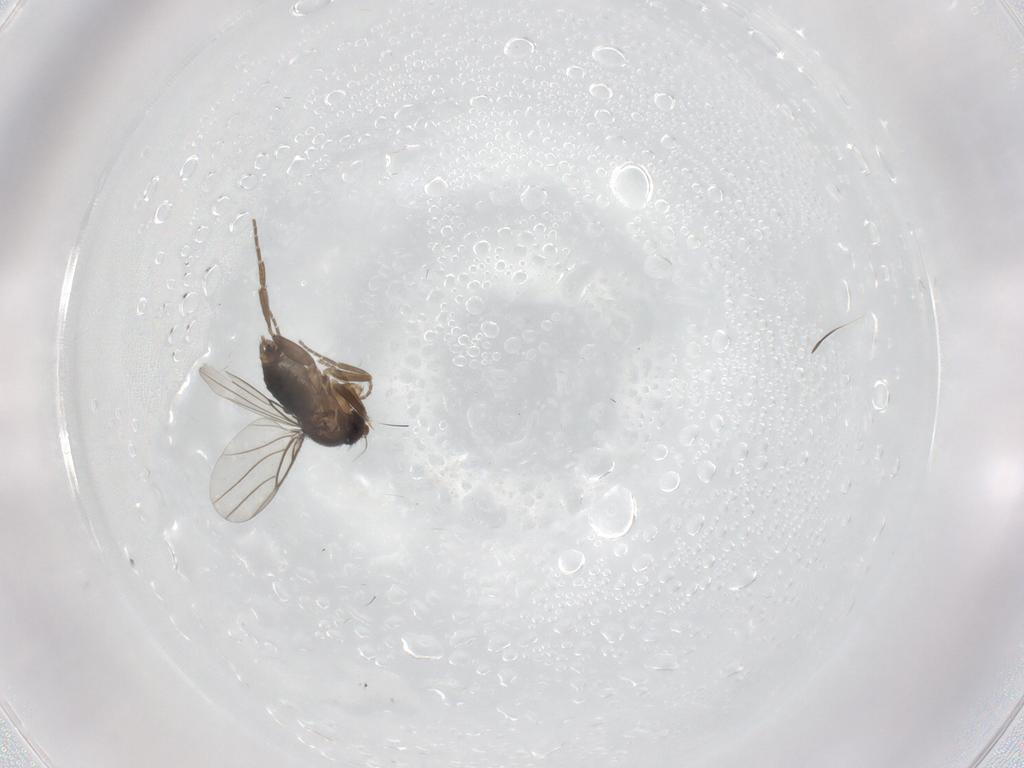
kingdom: Animalia
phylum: Arthropoda
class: Insecta
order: Diptera
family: Phoridae
